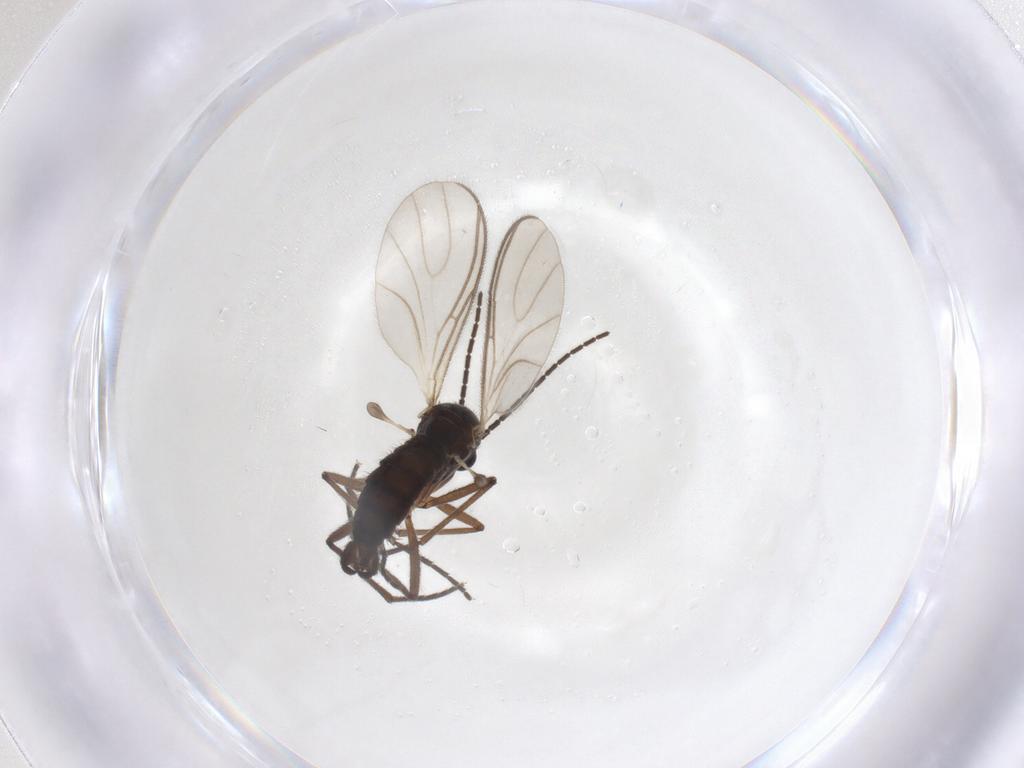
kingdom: Animalia
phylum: Arthropoda
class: Insecta
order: Diptera
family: Sciaridae
